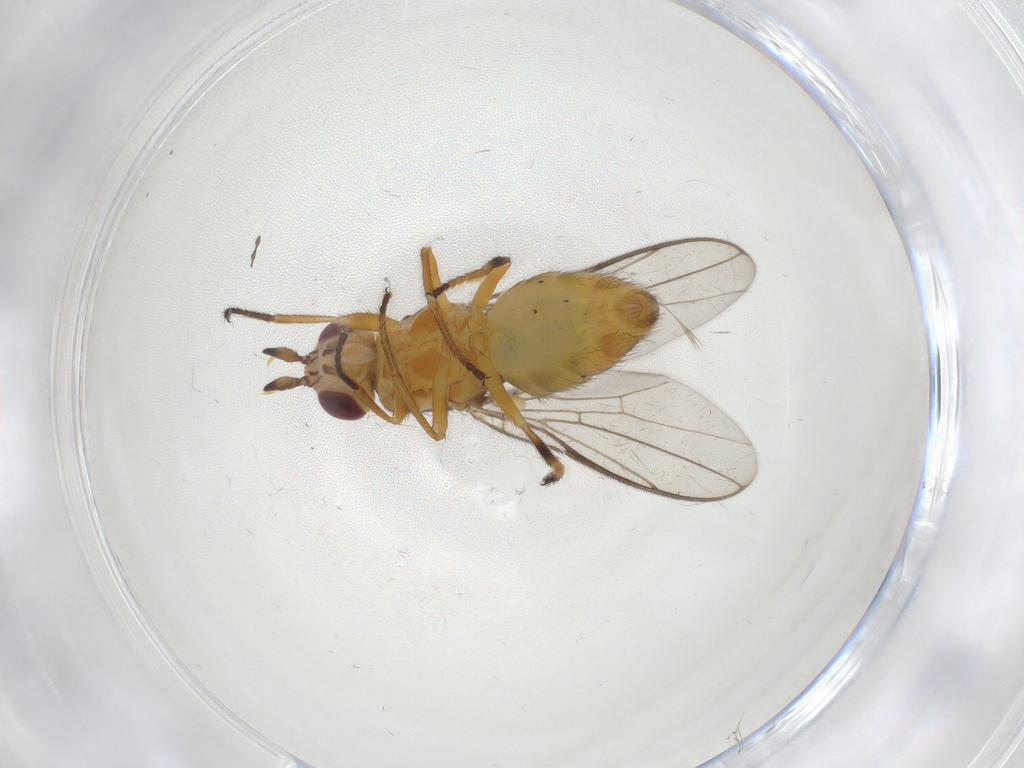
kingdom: Animalia
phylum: Arthropoda
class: Insecta
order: Diptera
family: Chloropidae
